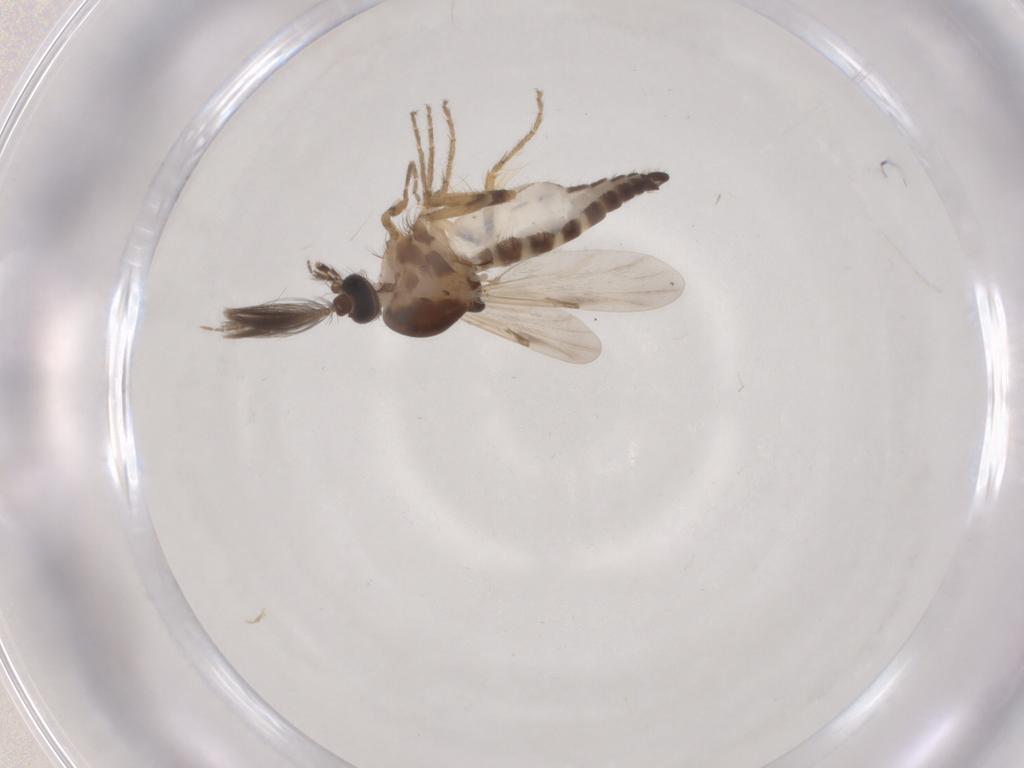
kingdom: Animalia
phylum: Arthropoda
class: Insecta
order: Diptera
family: Ceratopogonidae
